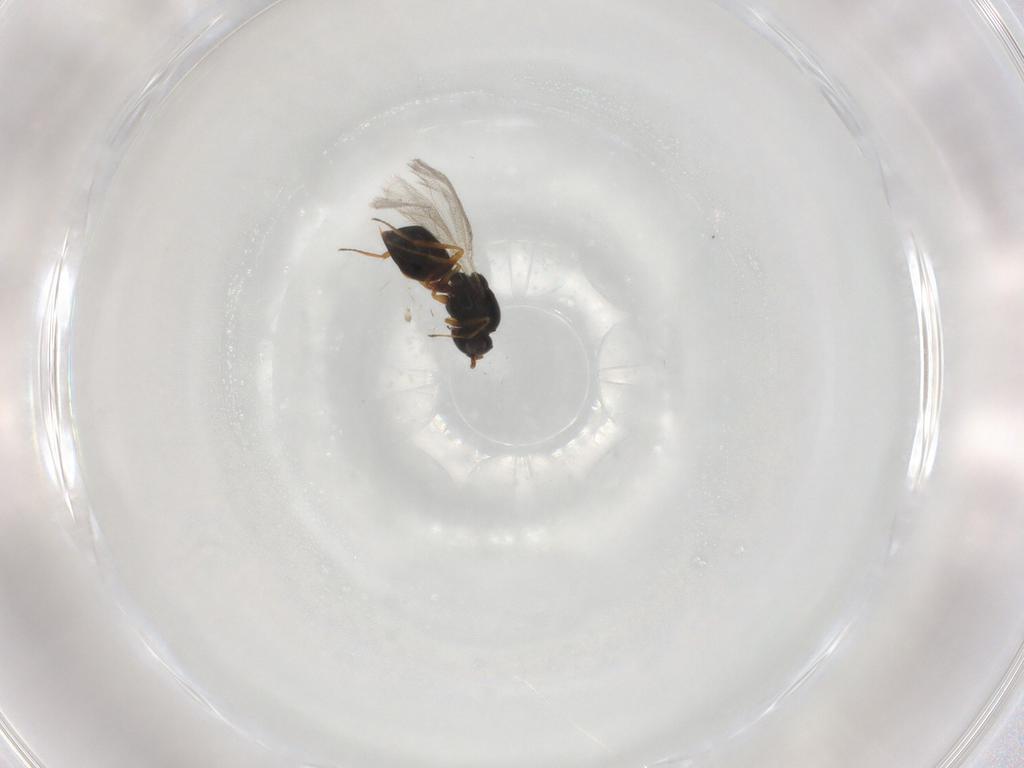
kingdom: Animalia
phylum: Arthropoda
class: Insecta
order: Hymenoptera
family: Figitidae
